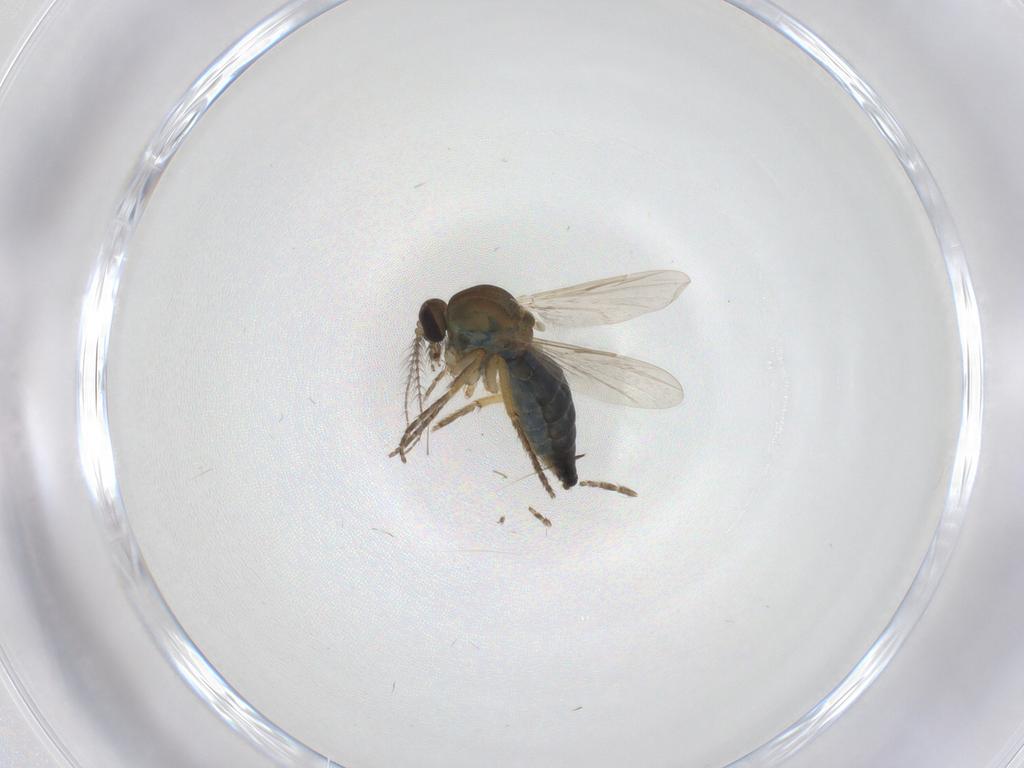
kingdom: Animalia
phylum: Arthropoda
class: Insecta
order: Diptera
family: Ceratopogonidae
